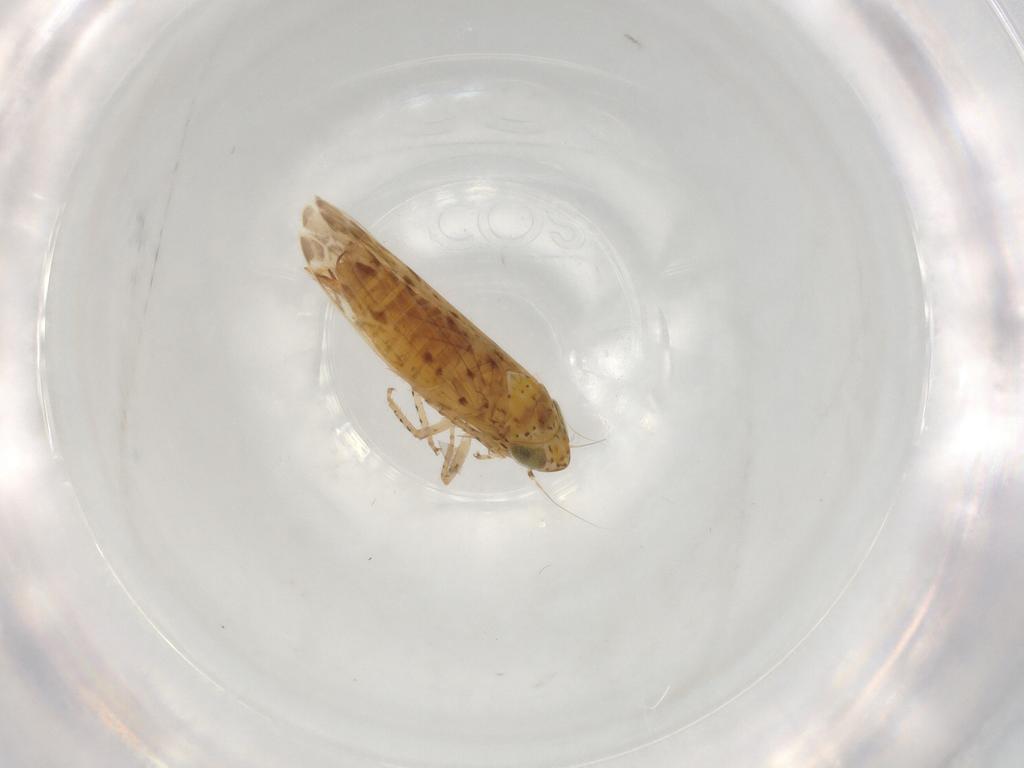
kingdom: Animalia
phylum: Arthropoda
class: Insecta
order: Hemiptera
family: Cicadellidae
